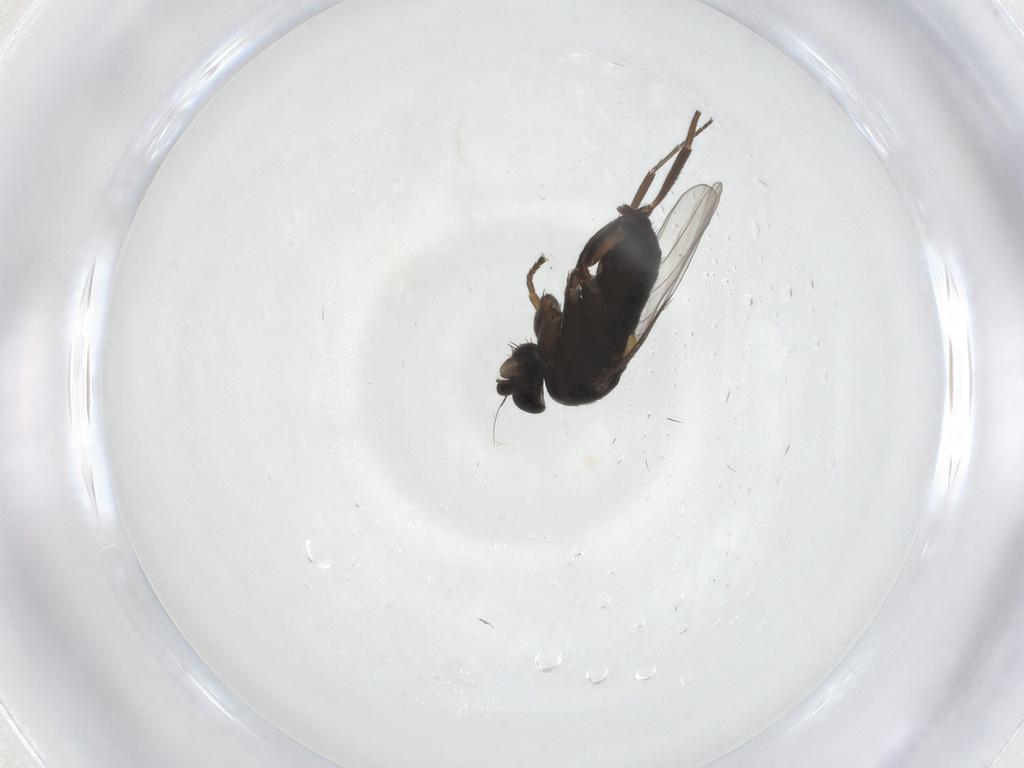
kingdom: Animalia
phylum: Arthropoda
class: Insecta
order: Diptera
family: Phoridae
